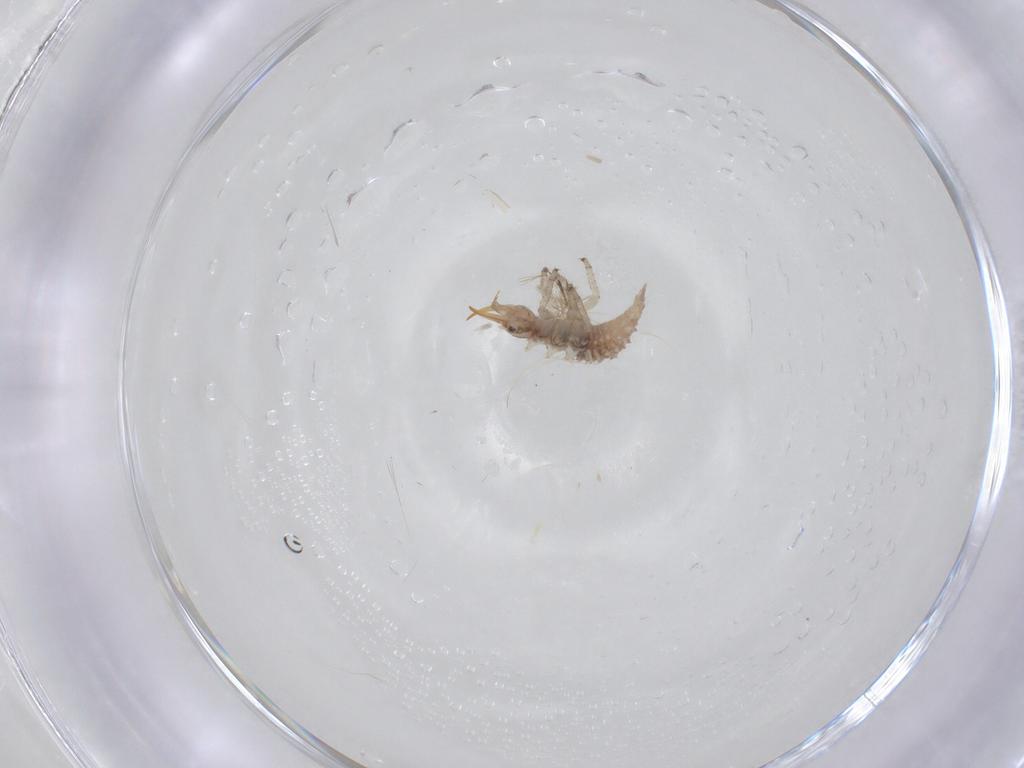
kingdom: Animalia
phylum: Arthropoda
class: Insecta
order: Neuroptera
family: Chrysopidae
